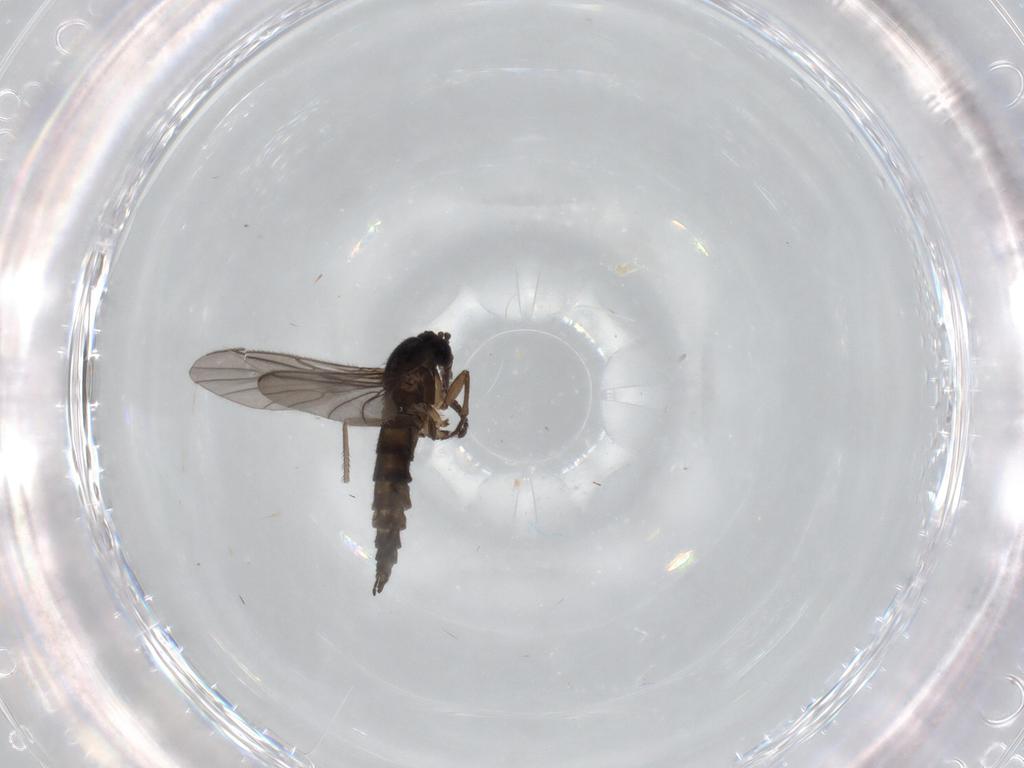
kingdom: Animalia
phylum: Arthropoda
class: Insecta
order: Diptera
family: Sciaridae
